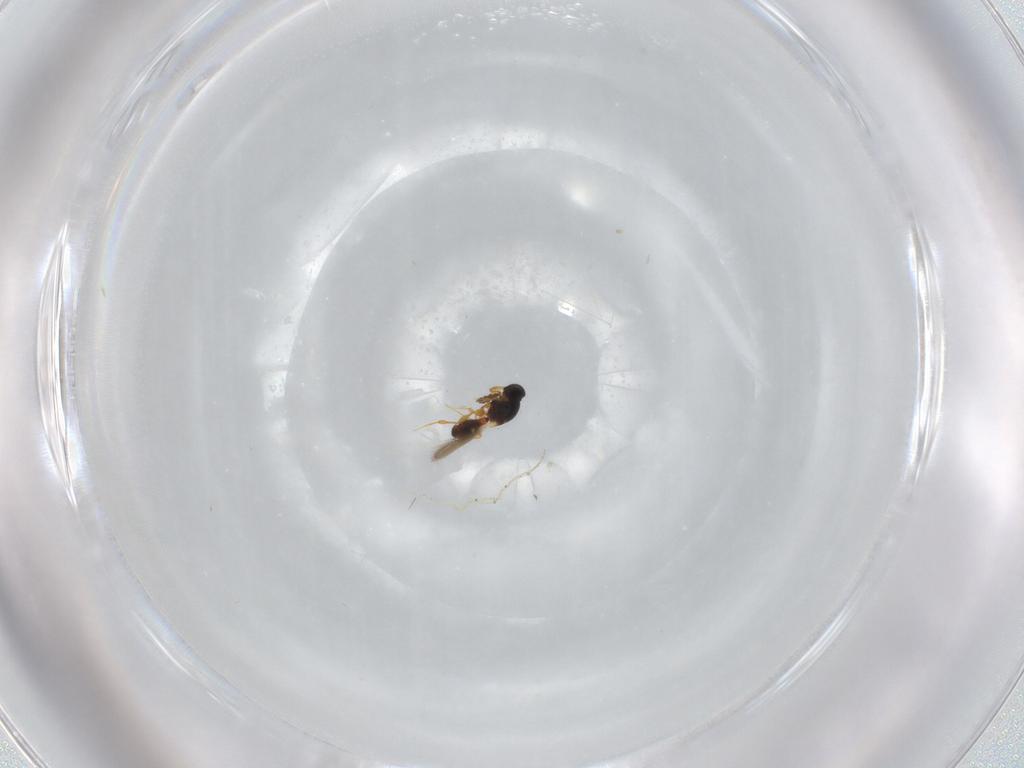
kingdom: Animalia
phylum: Arthropoda
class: Insecta
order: Hymenoptera
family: Platygastridae
